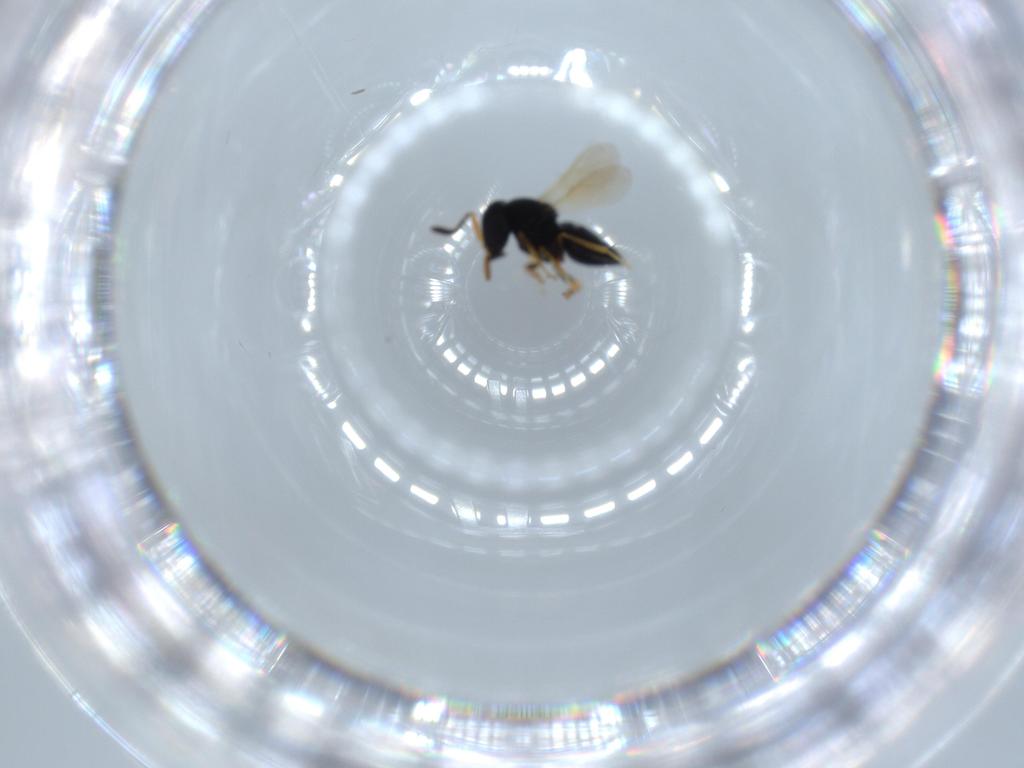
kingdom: Animalia
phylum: Arthropoda
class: Insecta
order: Hymenoptera
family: Scelionidae
